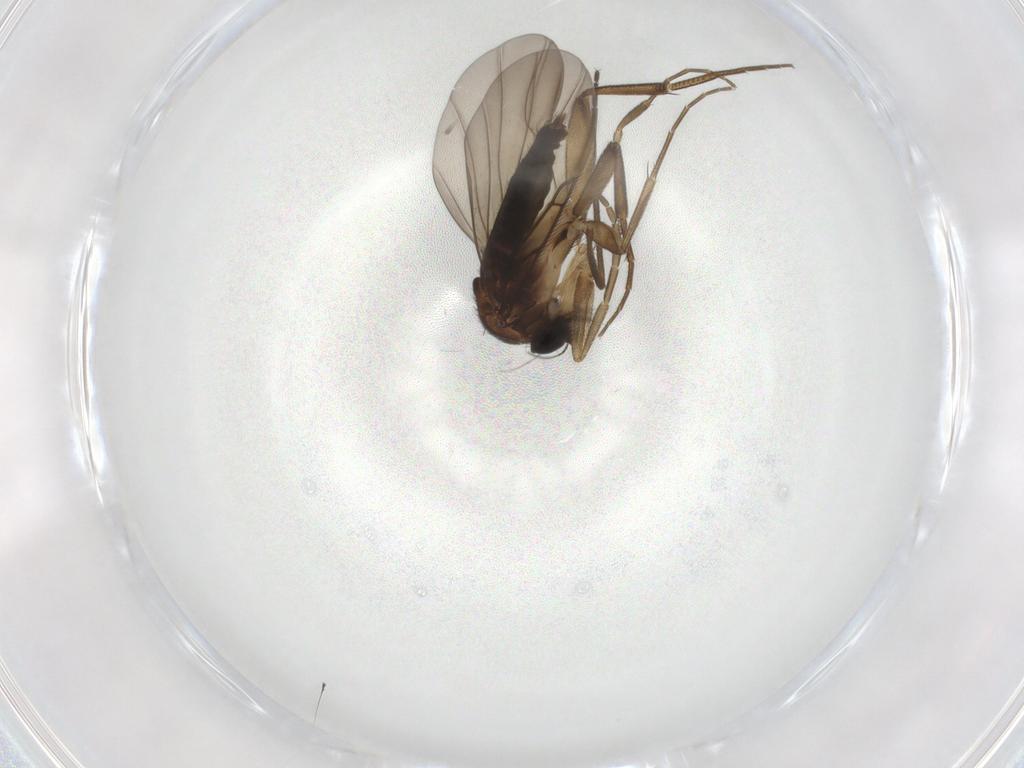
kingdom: Animalia
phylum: Arthropoda
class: Insecta
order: Diptera
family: Phoridae
